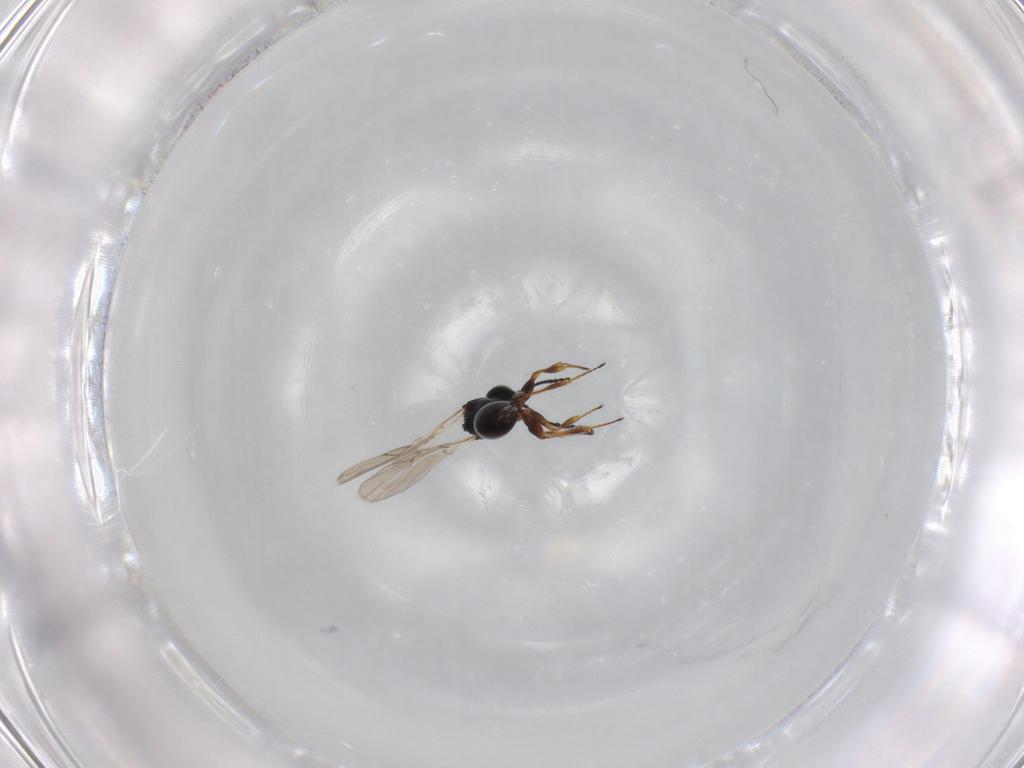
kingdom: Animalia
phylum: Arthropoda
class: Insecta
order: Hymenoptera
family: Figitidae
